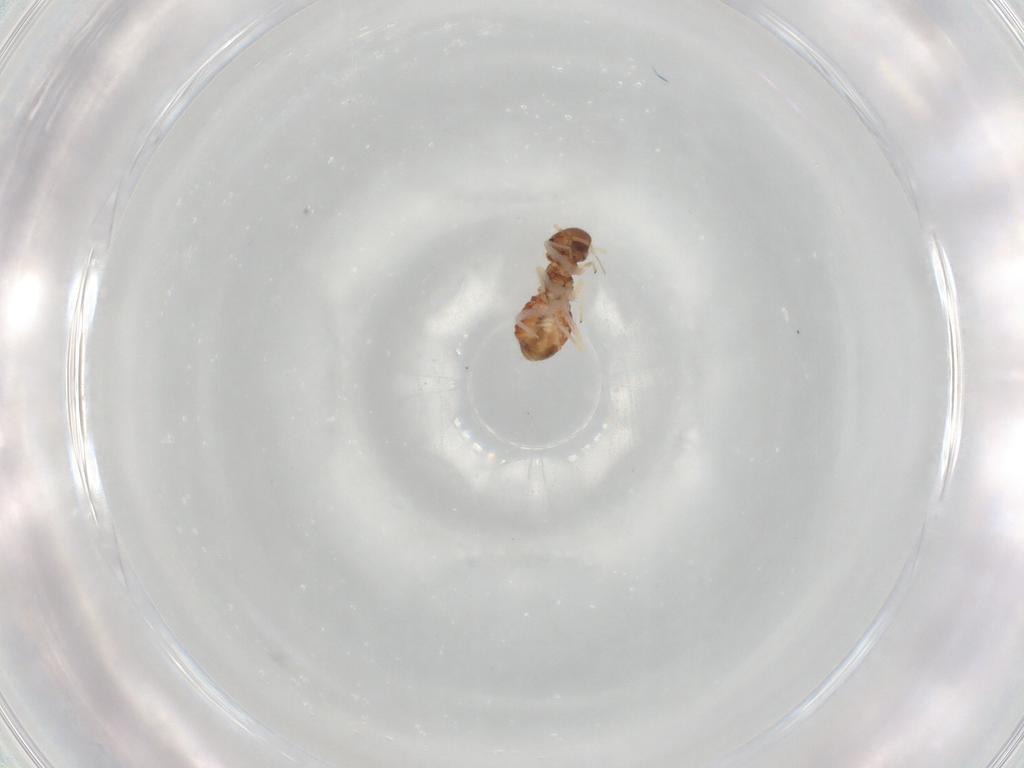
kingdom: Animalia
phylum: Arthropoda
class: Insecta
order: Psocodea
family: Archipsocidae
